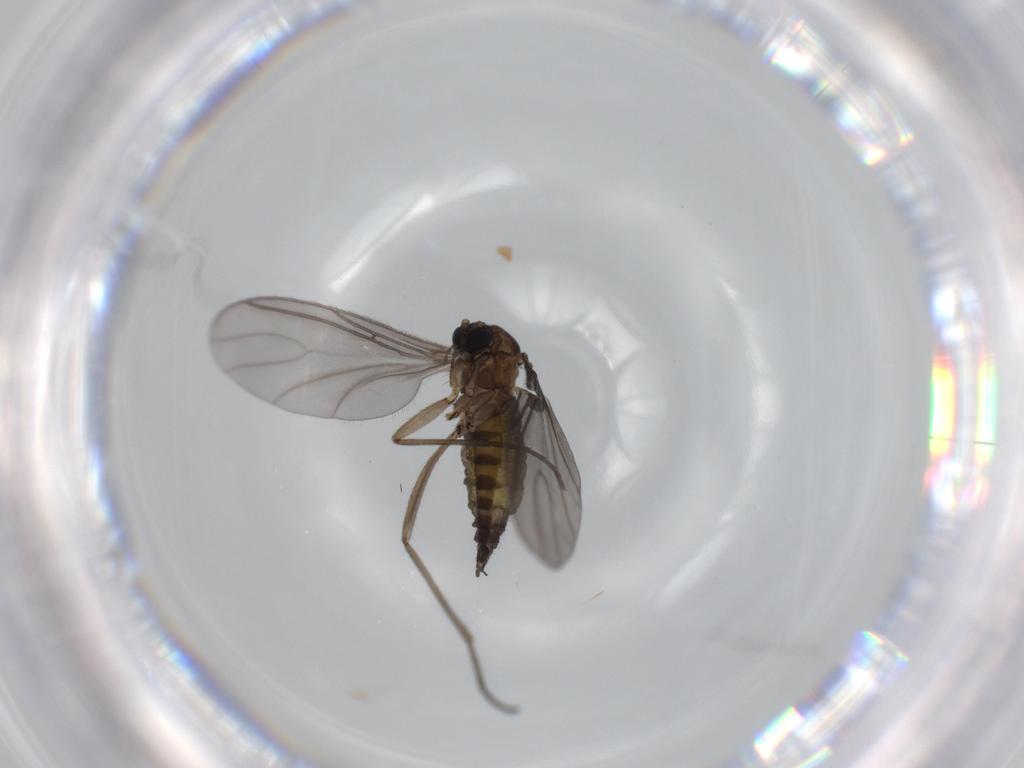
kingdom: Animalia
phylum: Arthropoda
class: Insecta
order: Diptera
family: Sciaridae
